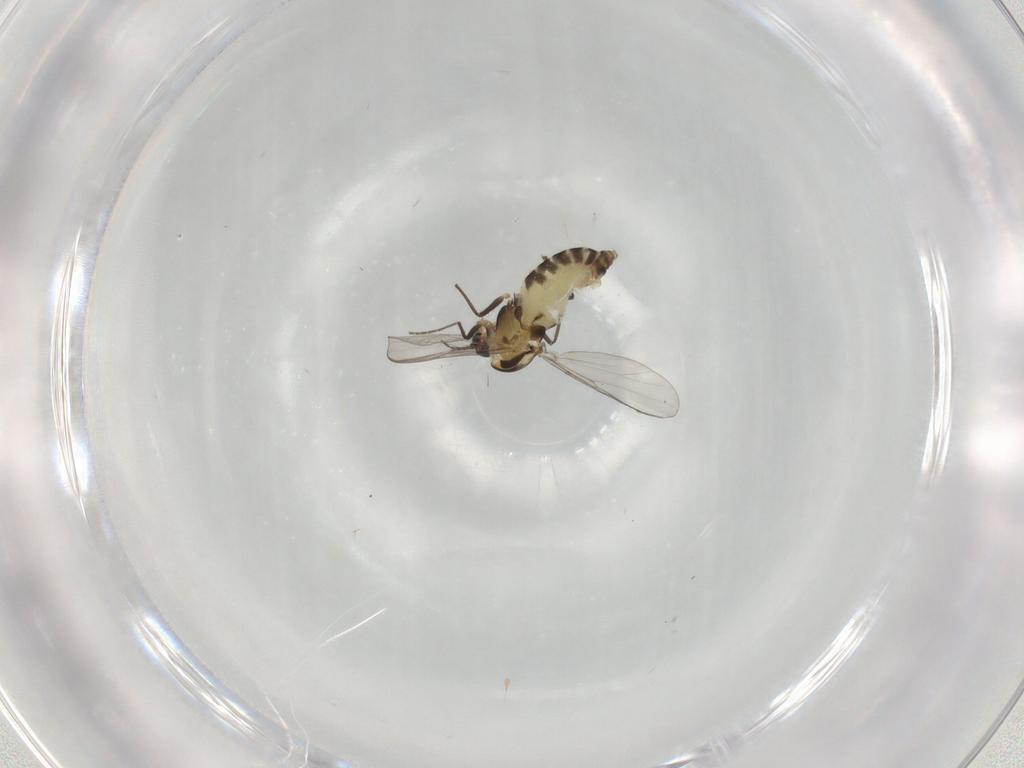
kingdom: Animalia
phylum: Arthropoda
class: Insecta
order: Diptera
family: Chironomidae
